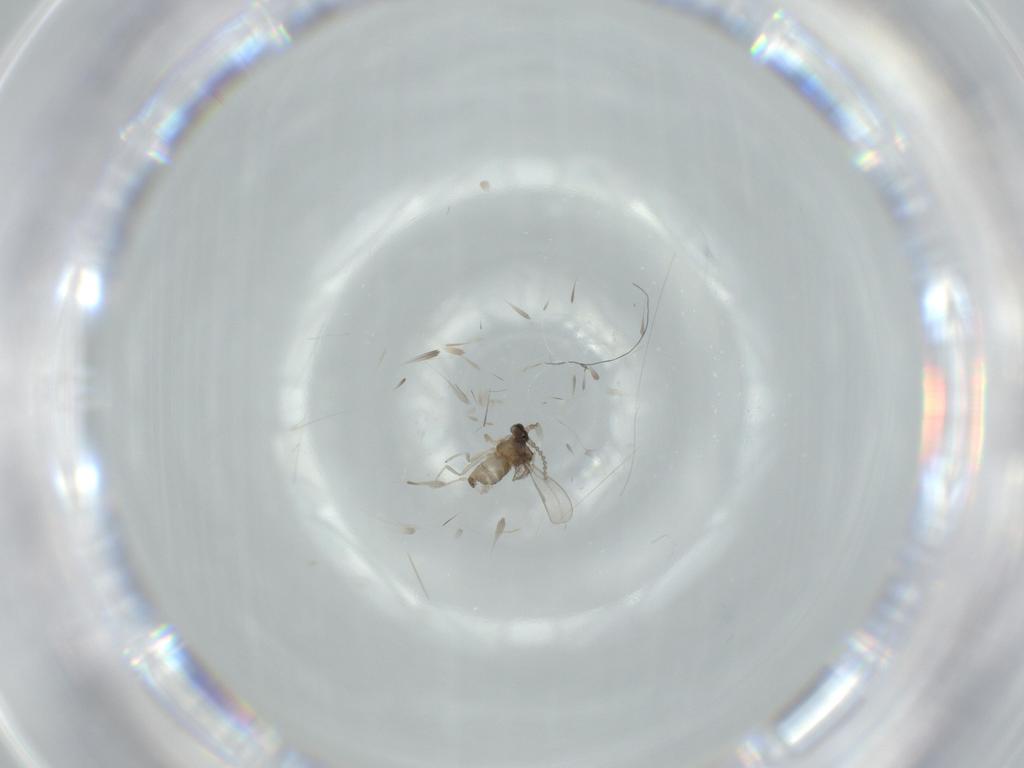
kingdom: Animalia
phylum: Arthropoda
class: Insecta
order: Diptera
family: Cecidomyiidae
